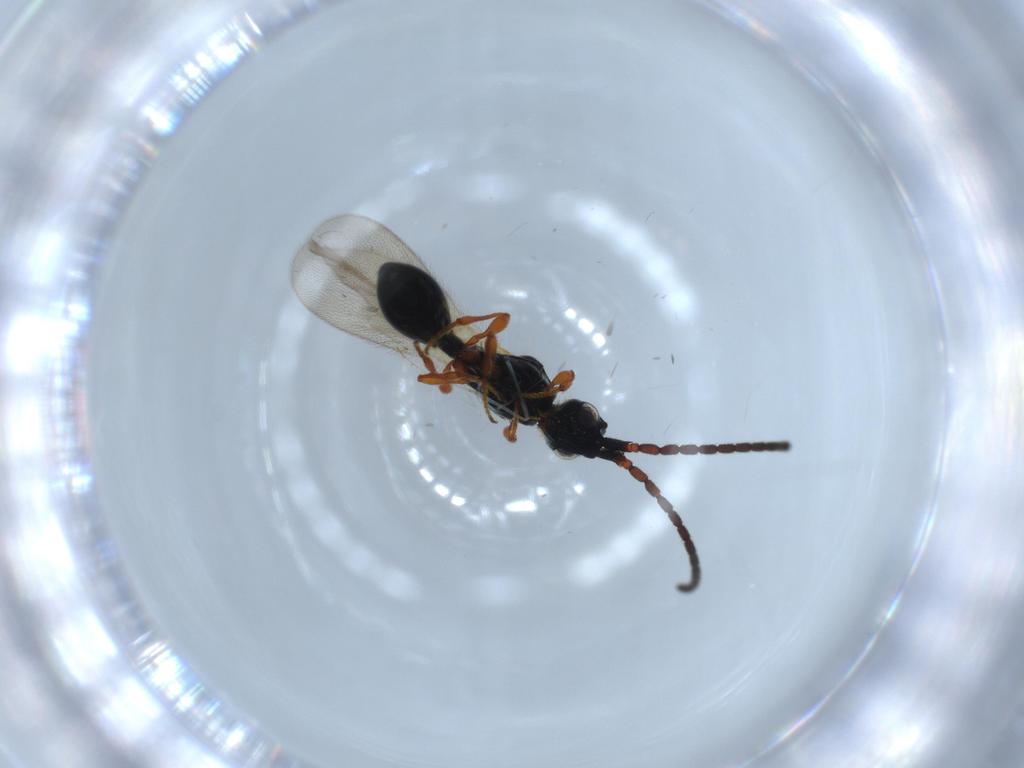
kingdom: Animalia
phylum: Arthropoda
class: Insecta
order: Hymenoptera
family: Diapriidae
